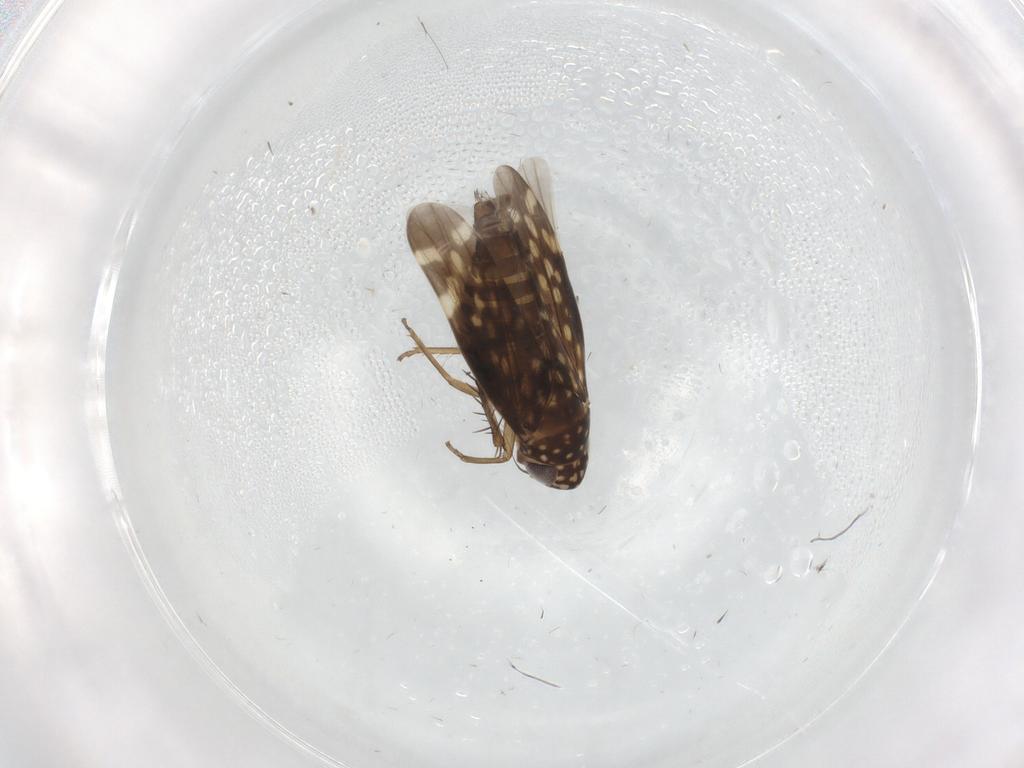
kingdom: Animalia
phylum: Arthropoda
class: Insecta
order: Hemiptera
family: Cicadellidae
